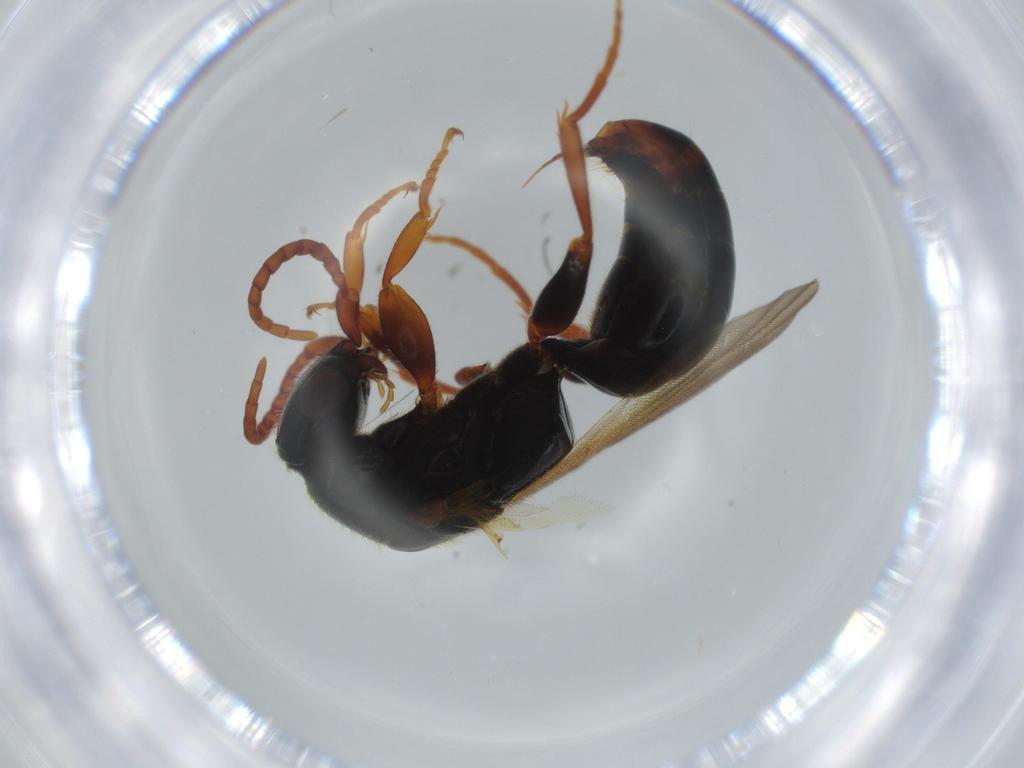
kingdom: Animalia
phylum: Arthropoda
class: Insecta
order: Hymenoptera
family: Bethylidae
